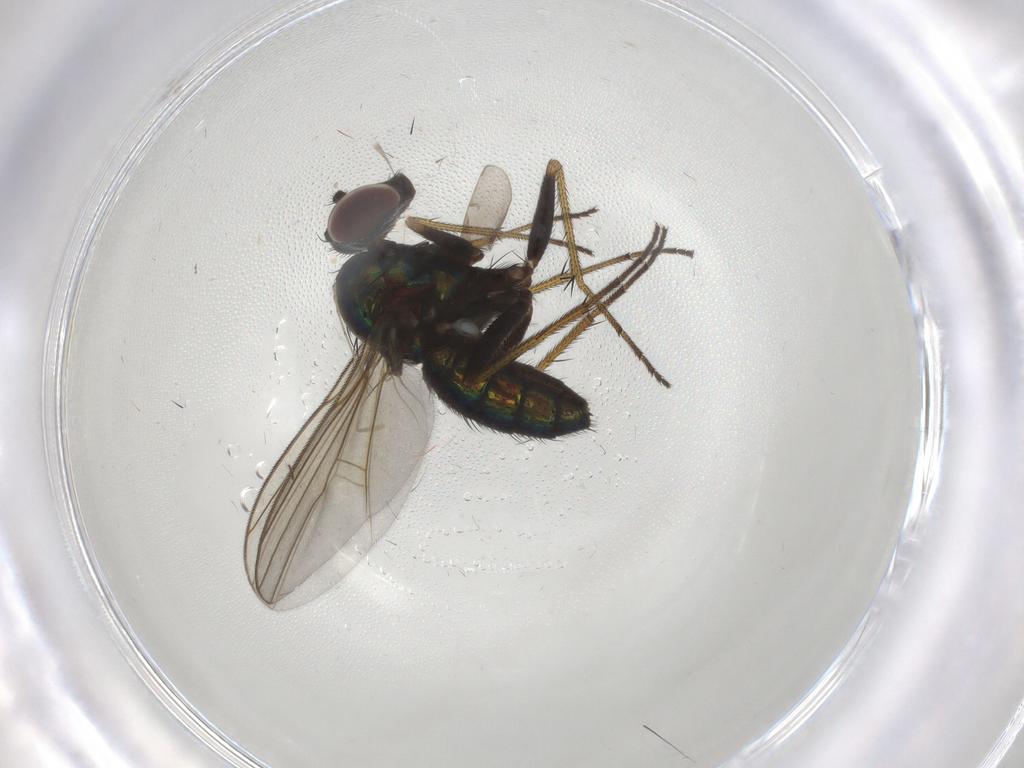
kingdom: Animalia
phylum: Arthropoda
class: Insecta
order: Diptera
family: Dolichopodidae
